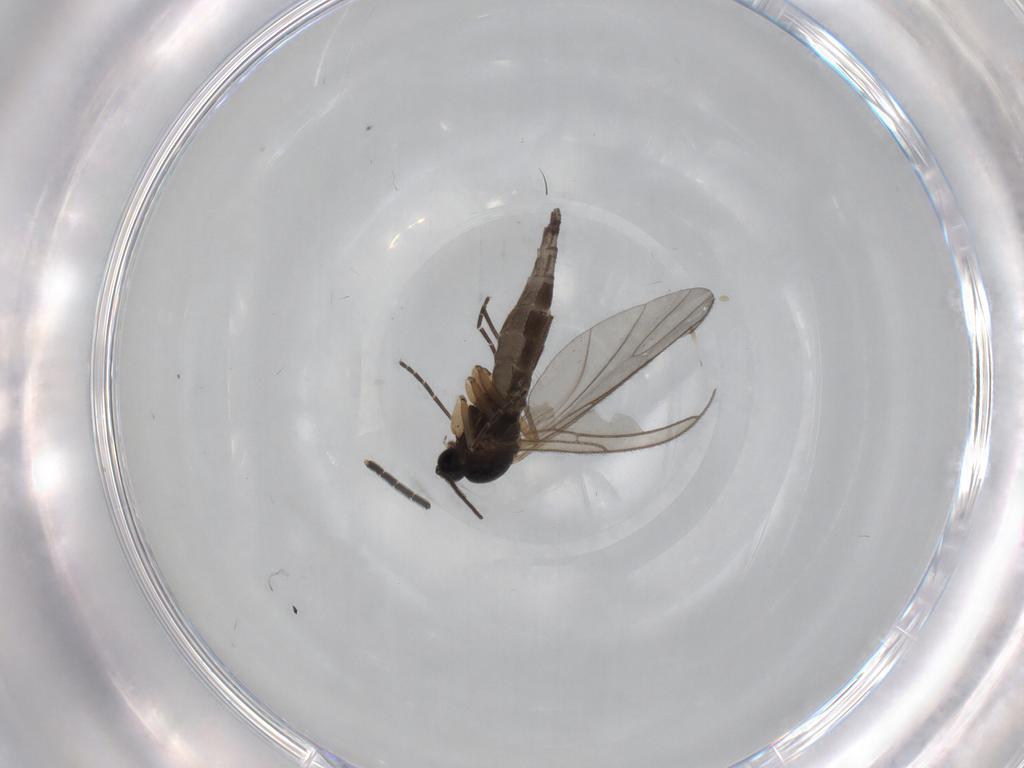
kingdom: Animalia
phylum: Arthropoda
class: Insecta
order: Diptera
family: Sciaridae
